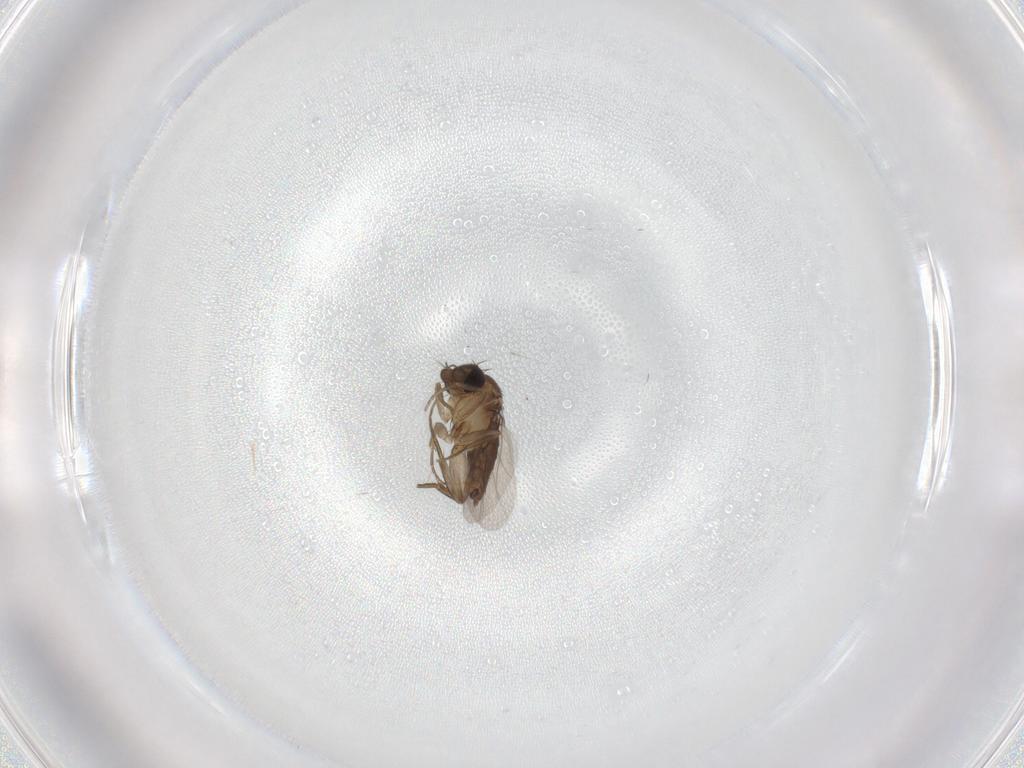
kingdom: Animalia
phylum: Arthropoda
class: Insecta
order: Diptera
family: Phoridae
